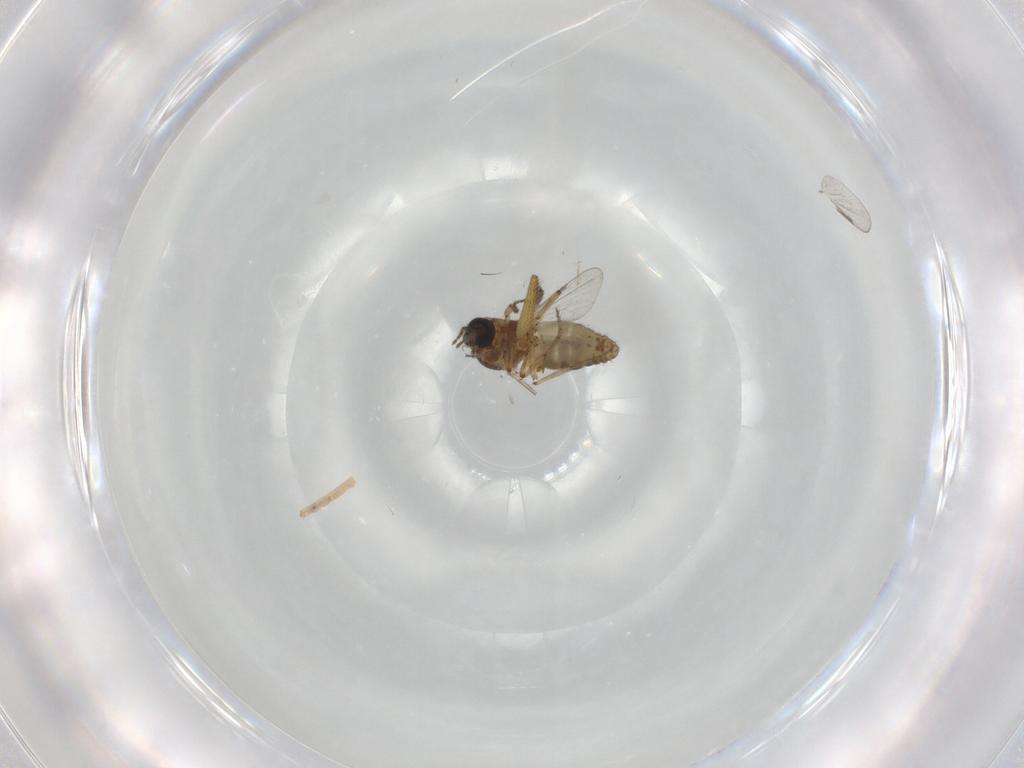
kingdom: Animalia
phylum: Arthropoda
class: Insecta
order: Diptera
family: Ceratopogonidae
